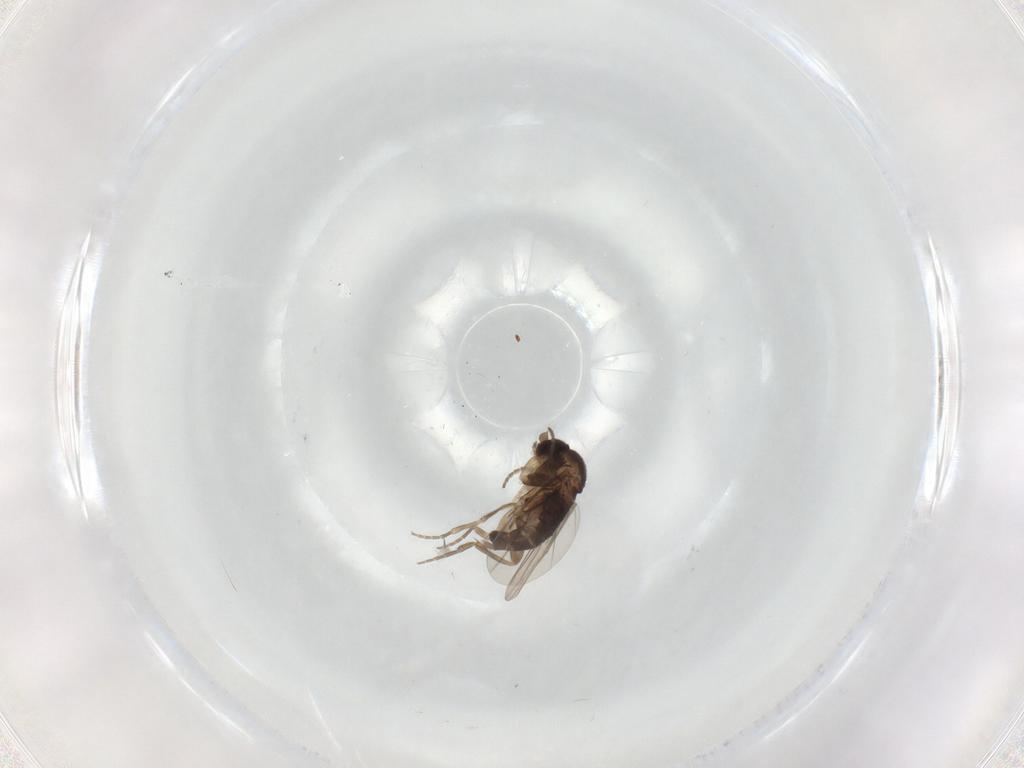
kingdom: Animalia
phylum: Arthropoda
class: Insecta
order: Diptera
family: Phoridae
